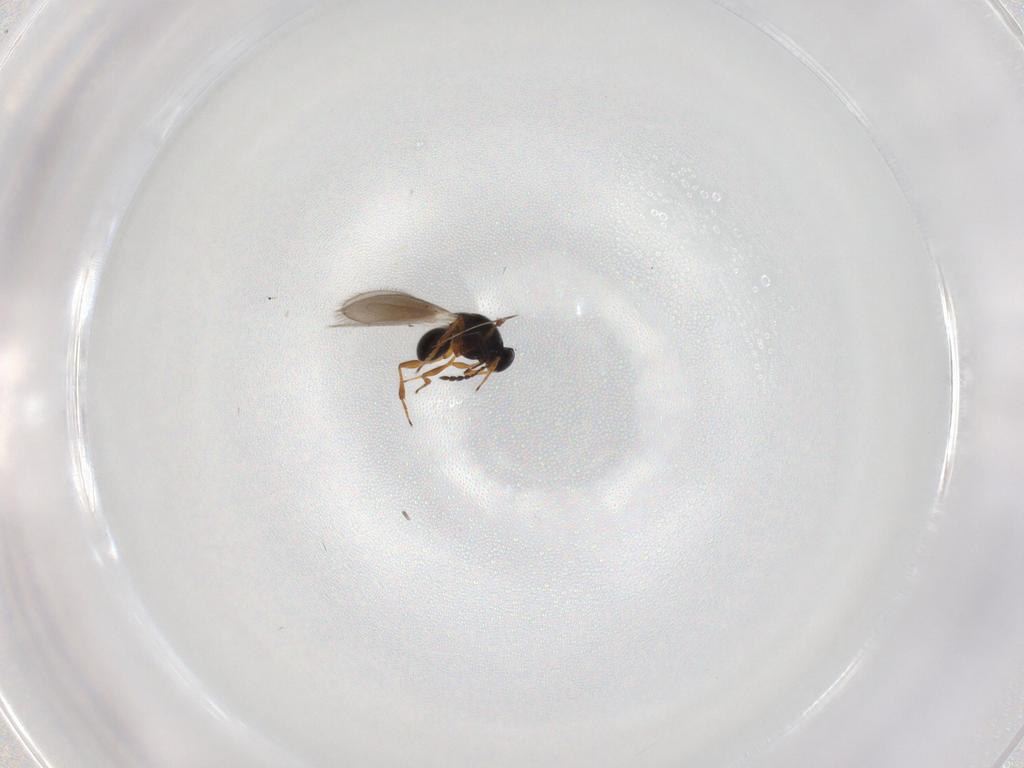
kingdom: Animalia
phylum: Arthropoda
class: Insecta
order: Hymenoptera
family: Platygastridae
